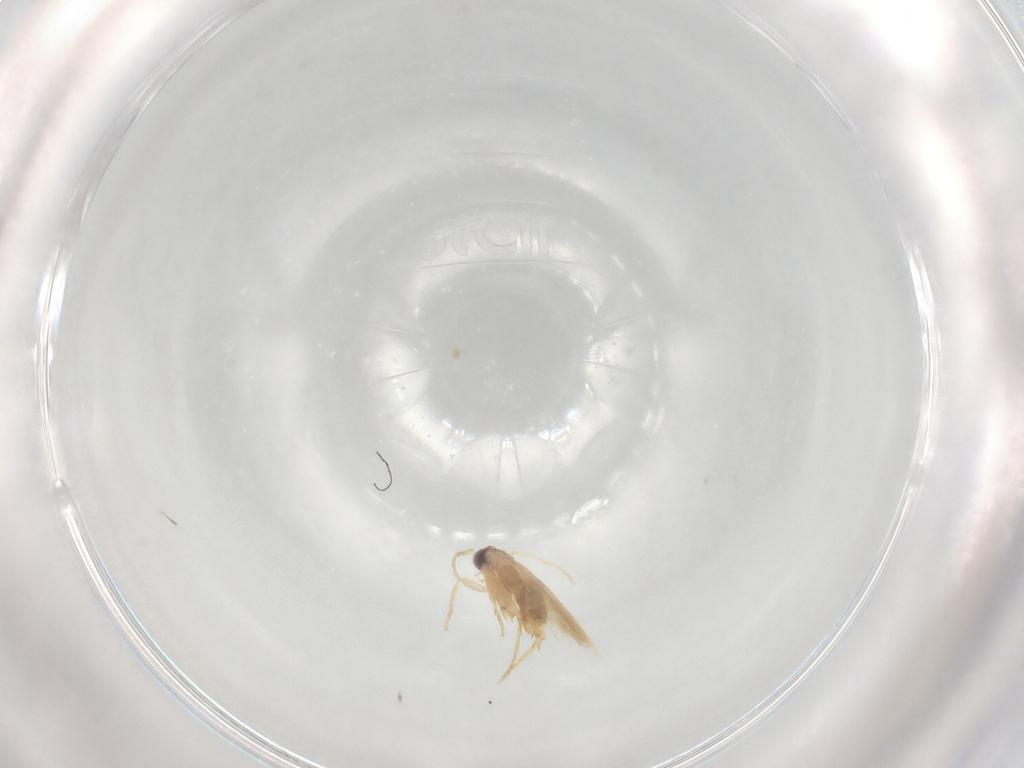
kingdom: Animalia
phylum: Arthropoda
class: Insecta
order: Lepidoptera
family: Nepticulidae
